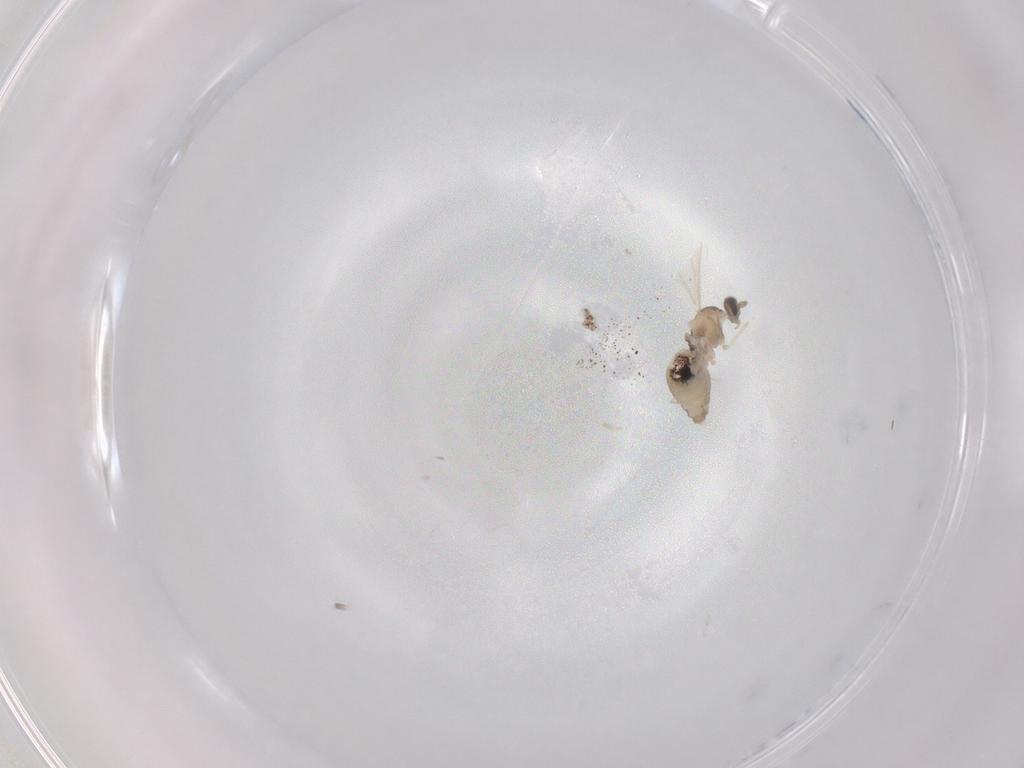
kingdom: Animalia
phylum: Arthropoda
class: Insecta
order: Diptera
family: Cecidomyiidae
